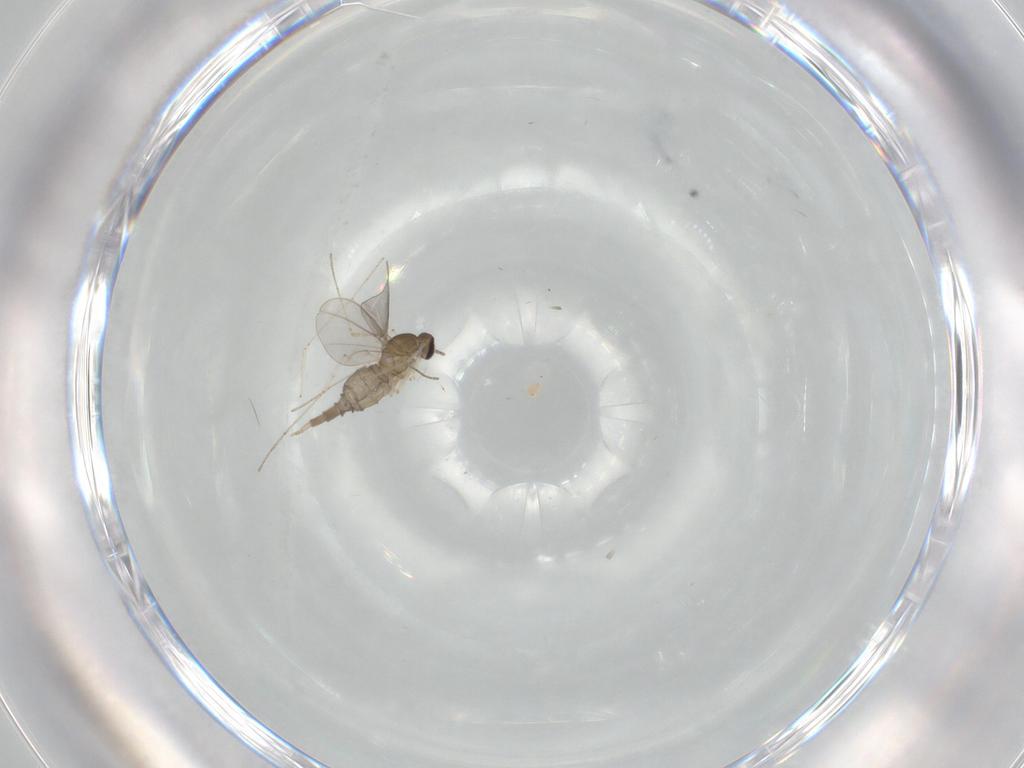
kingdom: Animalia
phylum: Arthropoda
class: Insecta
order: Diptera
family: Cecidomyiidae
